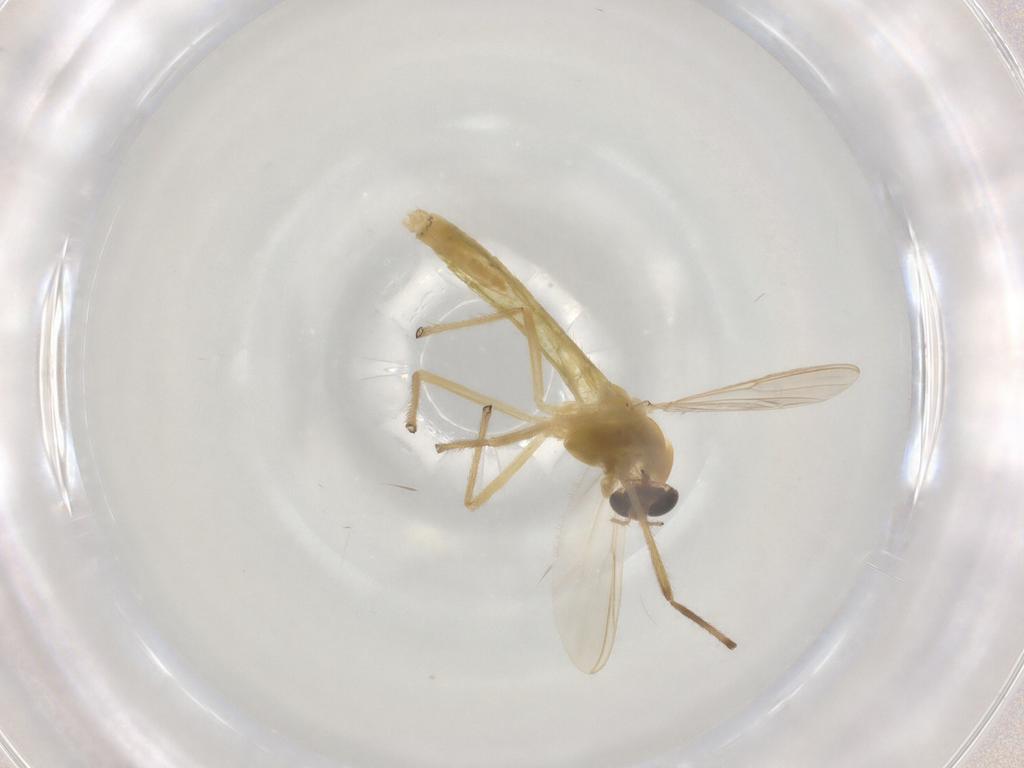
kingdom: Animalia
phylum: Arthropoda
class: Insecta
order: Diptera
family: Chironomidae
